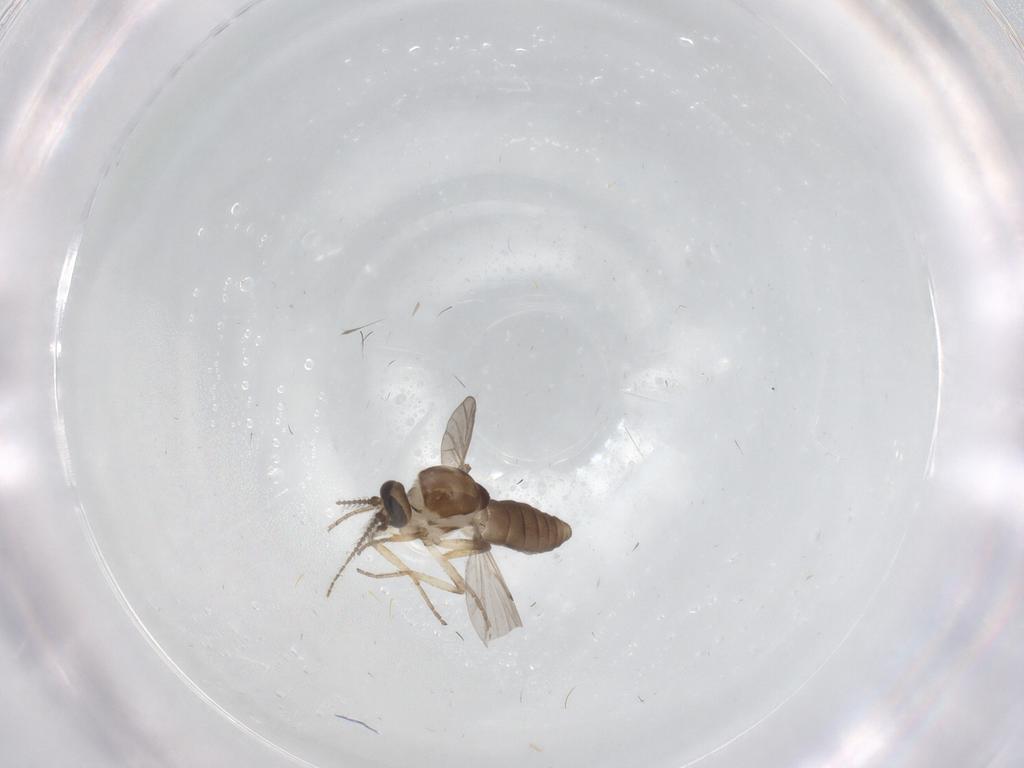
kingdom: Animalia
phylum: Arthropoda
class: Insecta
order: Diptera
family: Ceratopogonidae
